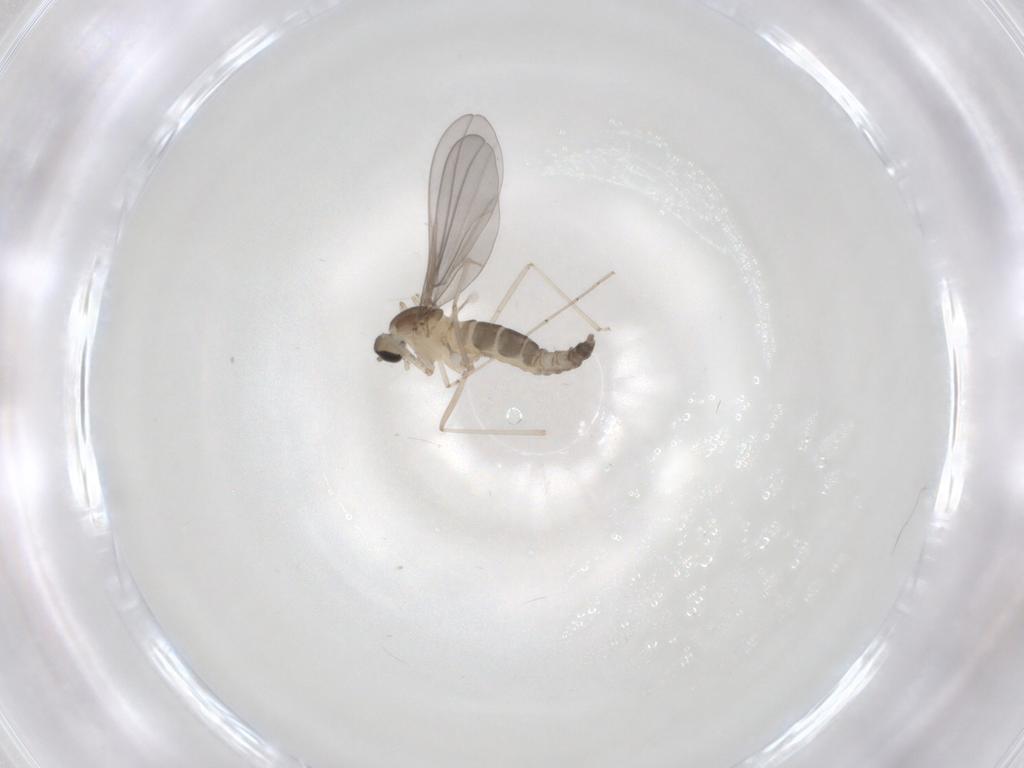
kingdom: Animalia
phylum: Arthropoda
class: Insecta
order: Diptera
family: Cecidomyiidae
